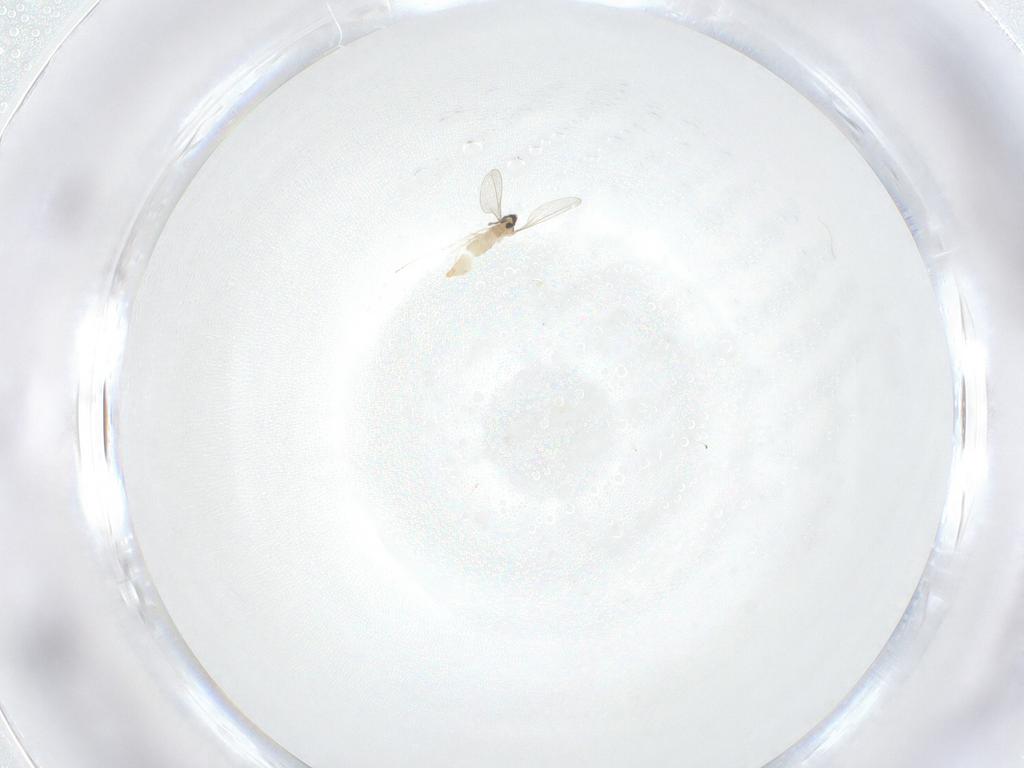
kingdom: Animalia
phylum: Arthropoda
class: Insecta
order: Diptera
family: Cecidomyiidae
